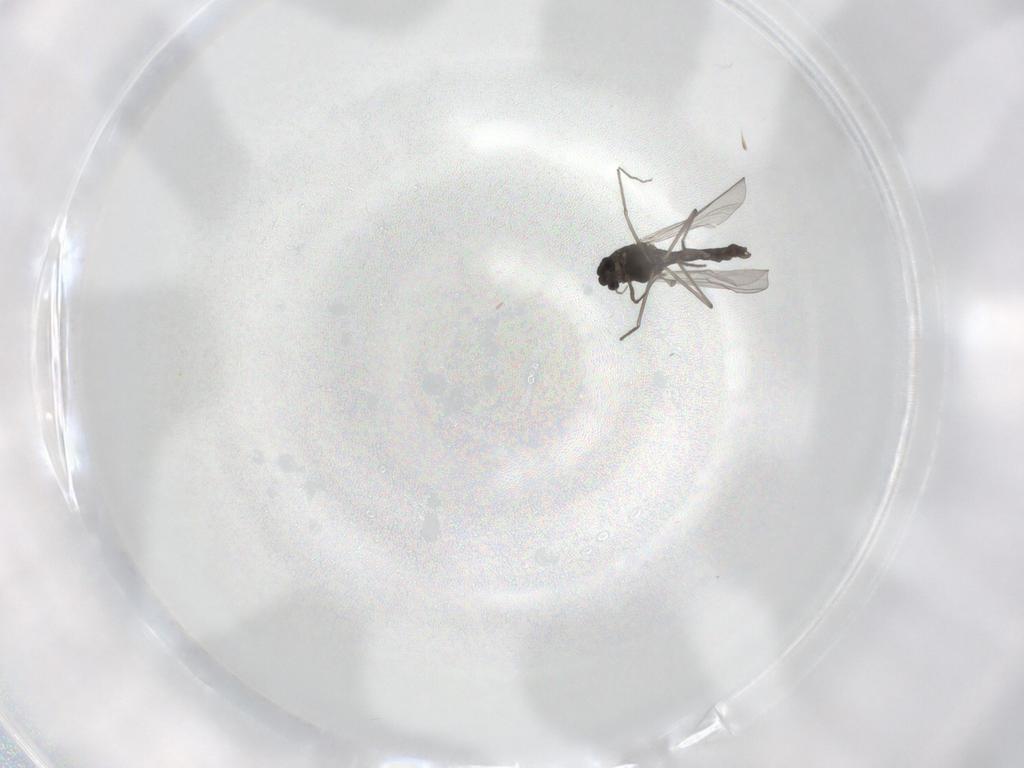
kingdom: Animalia
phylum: Arthropoda
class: Insecta
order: Diptera
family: Chironomidae
